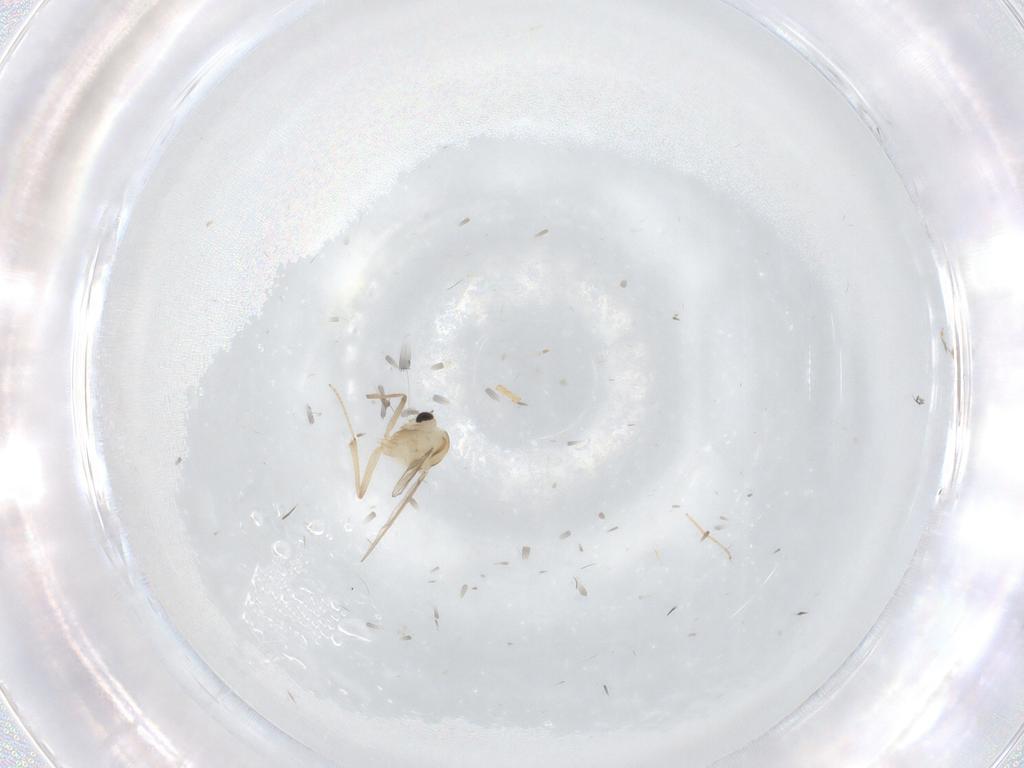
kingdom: Animalia
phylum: Arthropoda
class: Insecta
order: Diptera
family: Chironomidae
